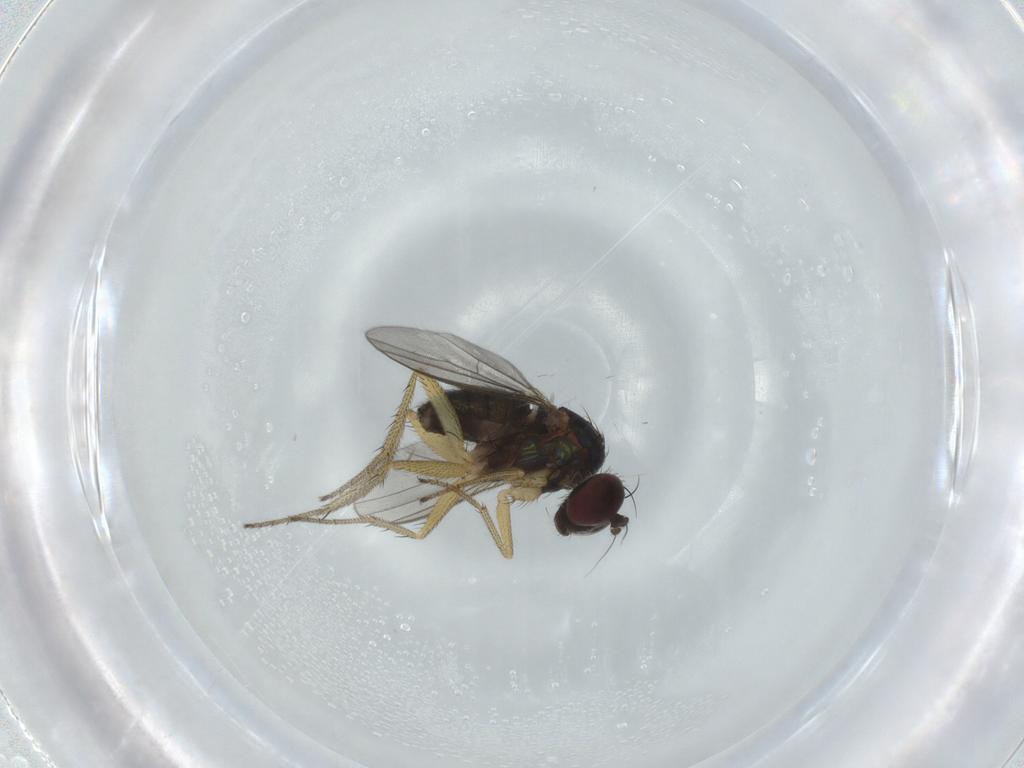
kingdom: Animalia
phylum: Arthropoda
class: Insecta
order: Diptera
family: Dolichopodidae
